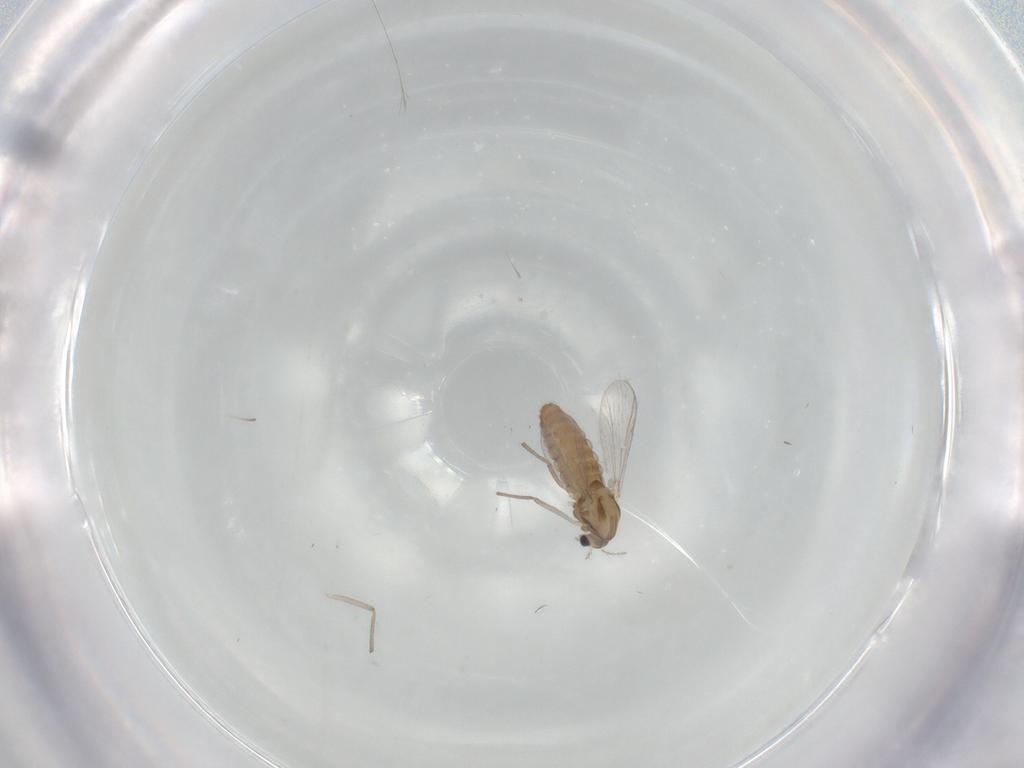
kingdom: Animalia
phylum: Arthropoda
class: Insecta
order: Diptera
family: Chironomidae
